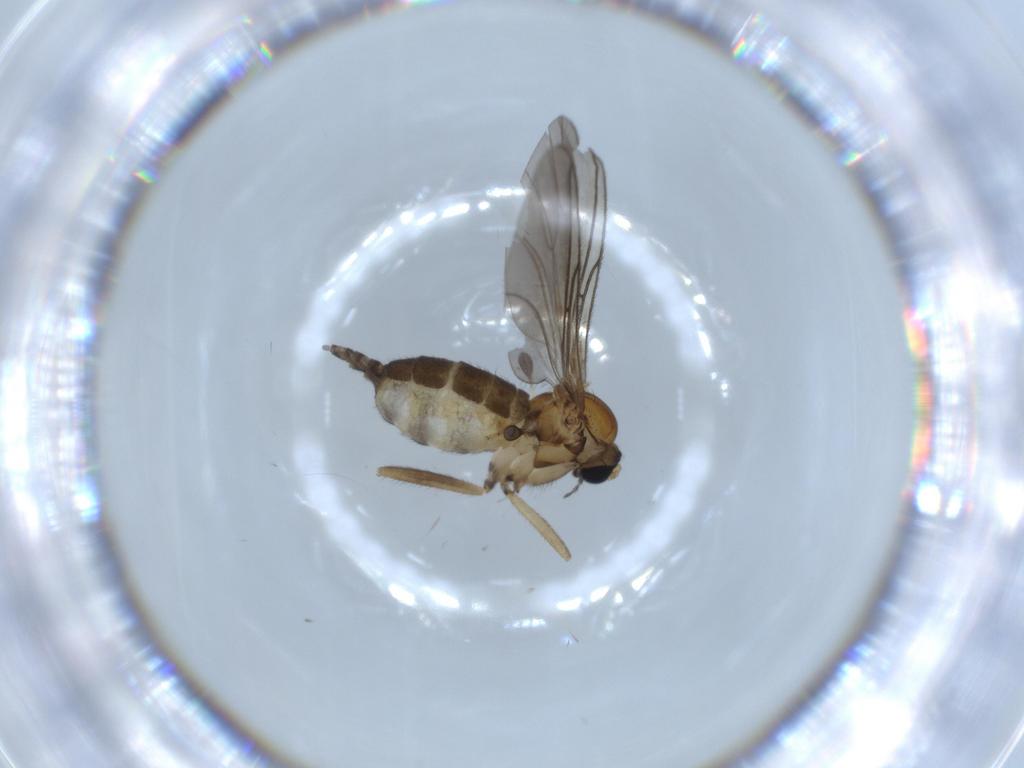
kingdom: Animalia
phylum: Arthropoda
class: Insecta
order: Diptera
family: Sciaridae
